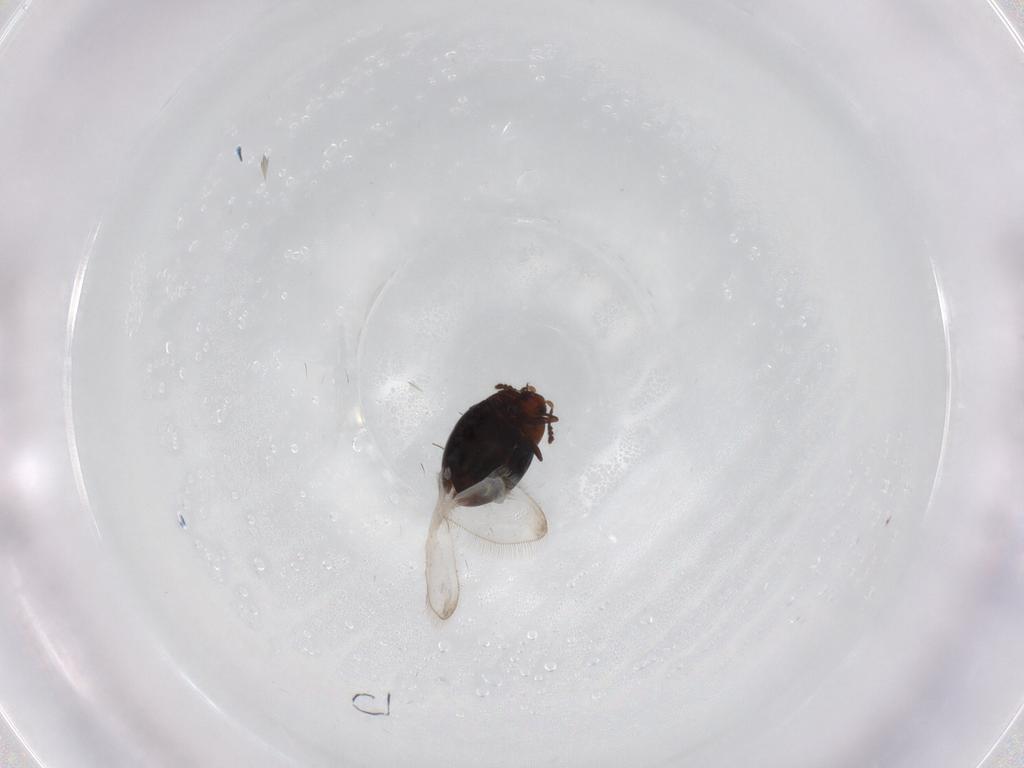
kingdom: Animalia
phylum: Arthropoda
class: Insecta
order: Coleoptera
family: Corylophidae
